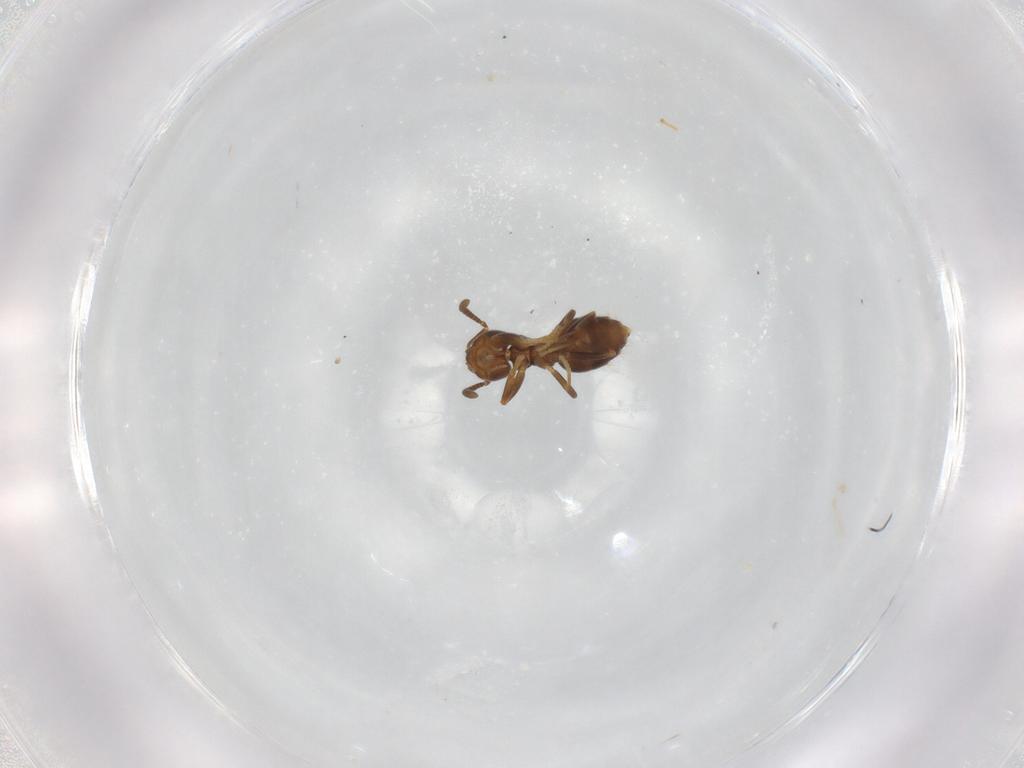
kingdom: Animalia
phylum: Arthropoda
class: Insecta
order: Hymenoptera
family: Formicidae
